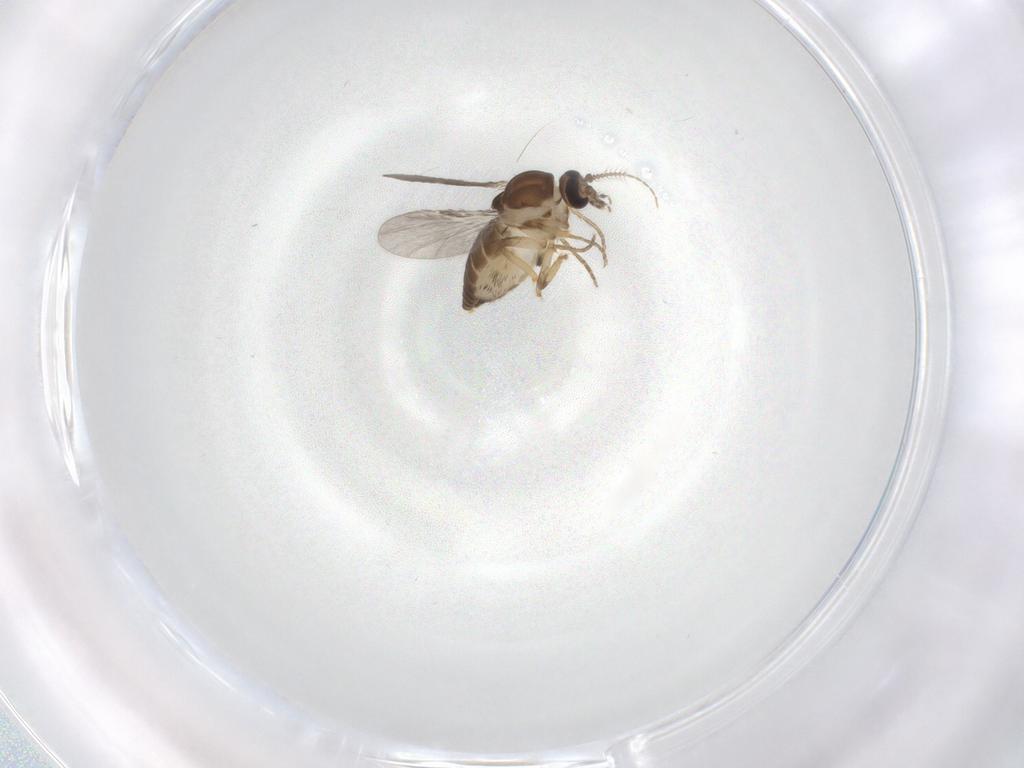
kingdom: Animalia
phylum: Arthropoda
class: Insecta
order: Diptera
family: Ceratopogonidae
